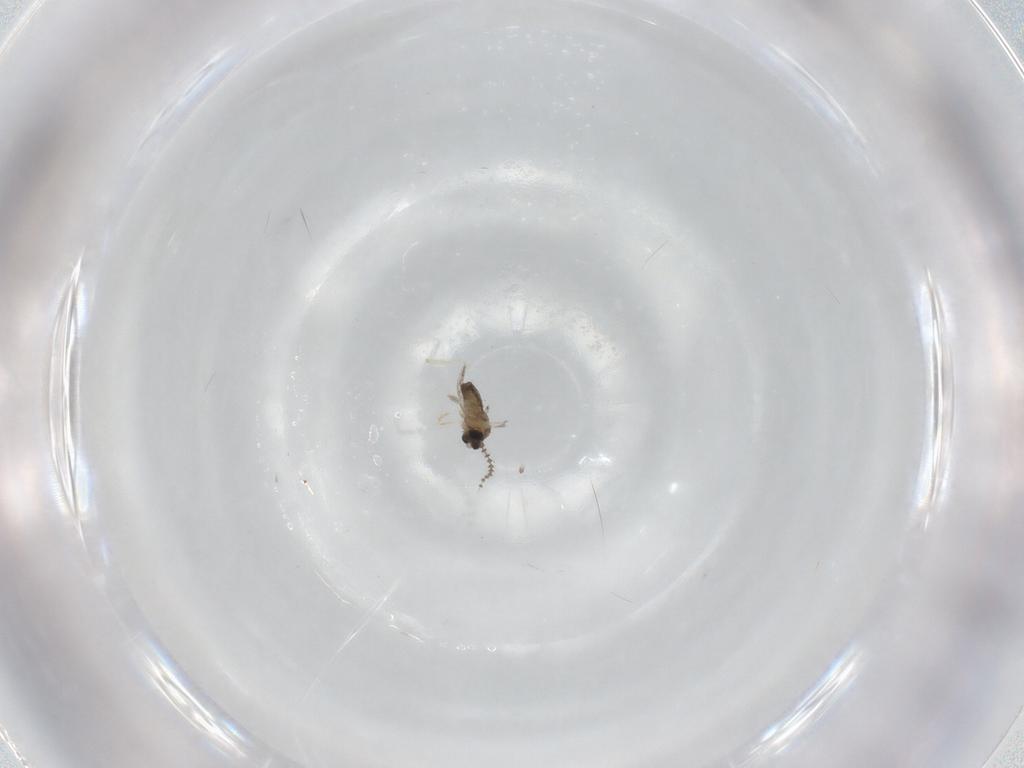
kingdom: Animalia
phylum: Arthropoda
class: Insecta
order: Diptera
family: Cecidomyiidae
